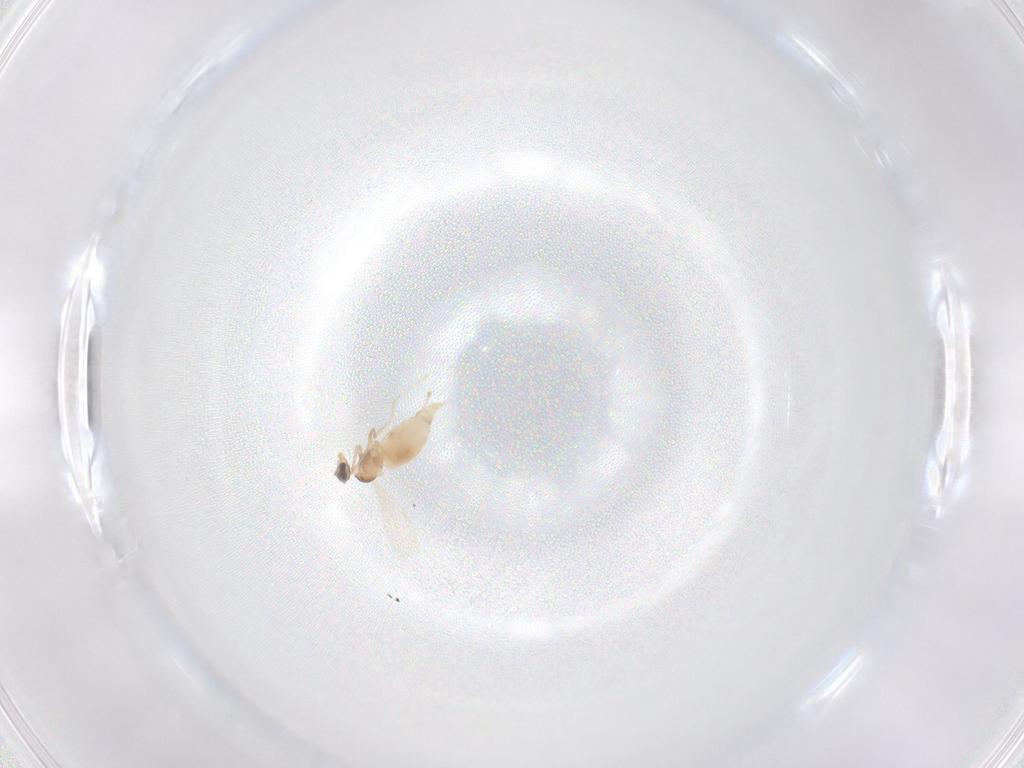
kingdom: Animalia
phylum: Arthropoda
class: Insecta
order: Diptera
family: Cecidomyiidae
